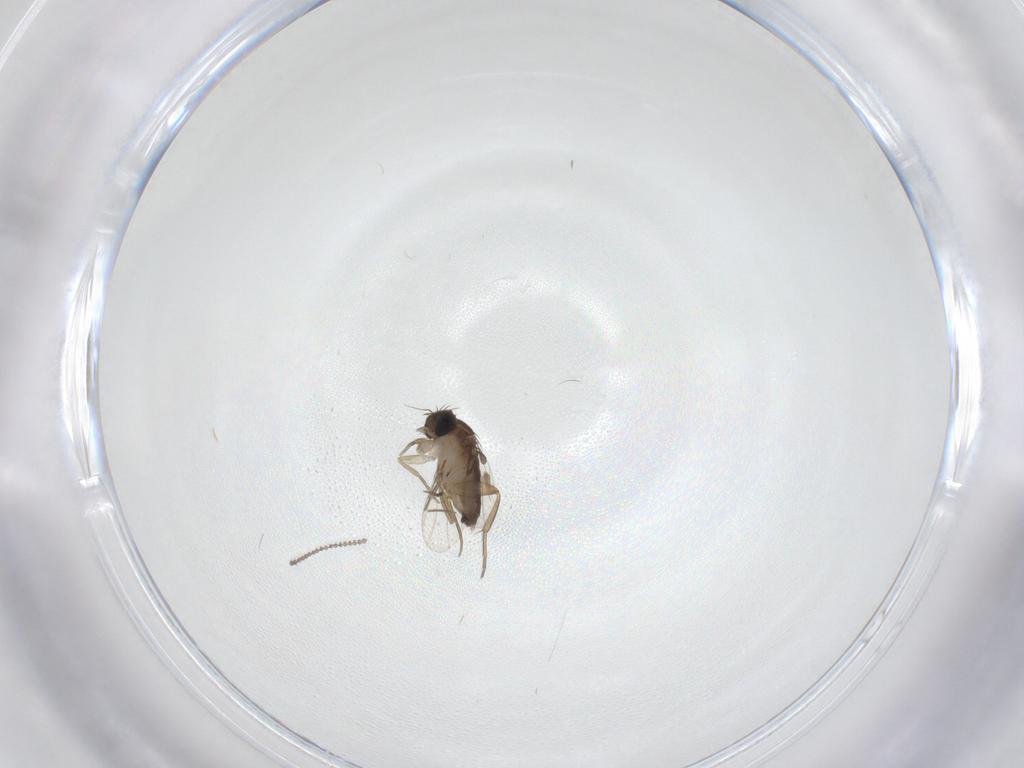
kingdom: Animalia
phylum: Arthropoda
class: Insecta
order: Diptera
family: Phoridae
